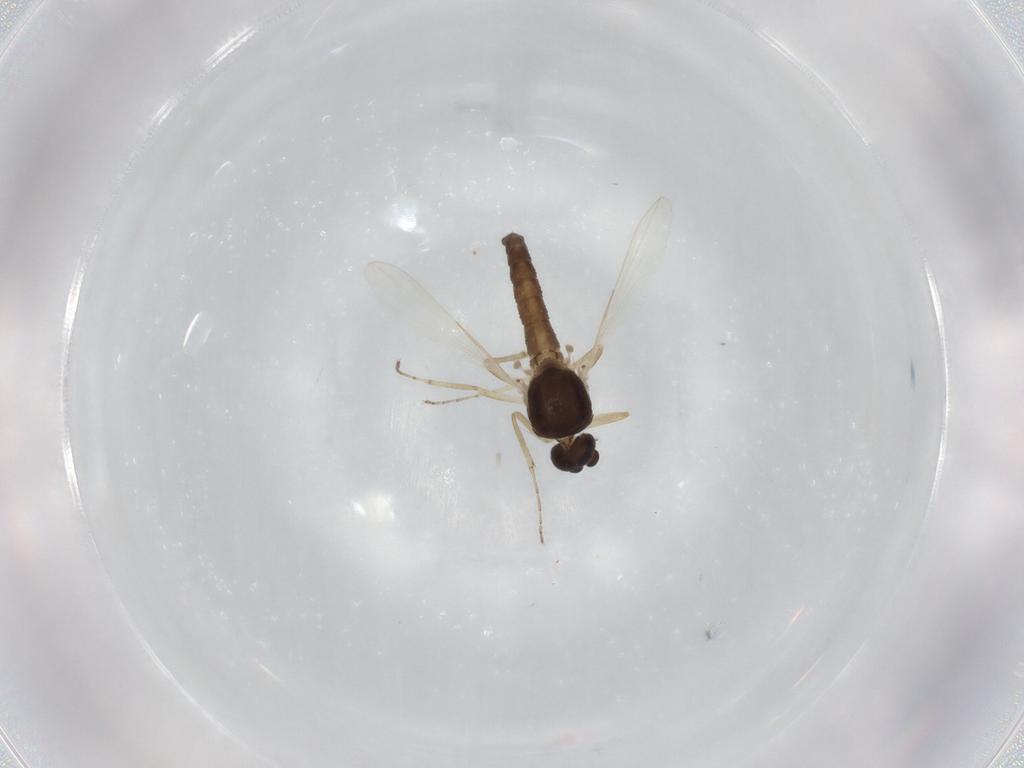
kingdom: Animalia
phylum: Arthropoda
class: Insecta
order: Diptera
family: Ceratopogonidae
